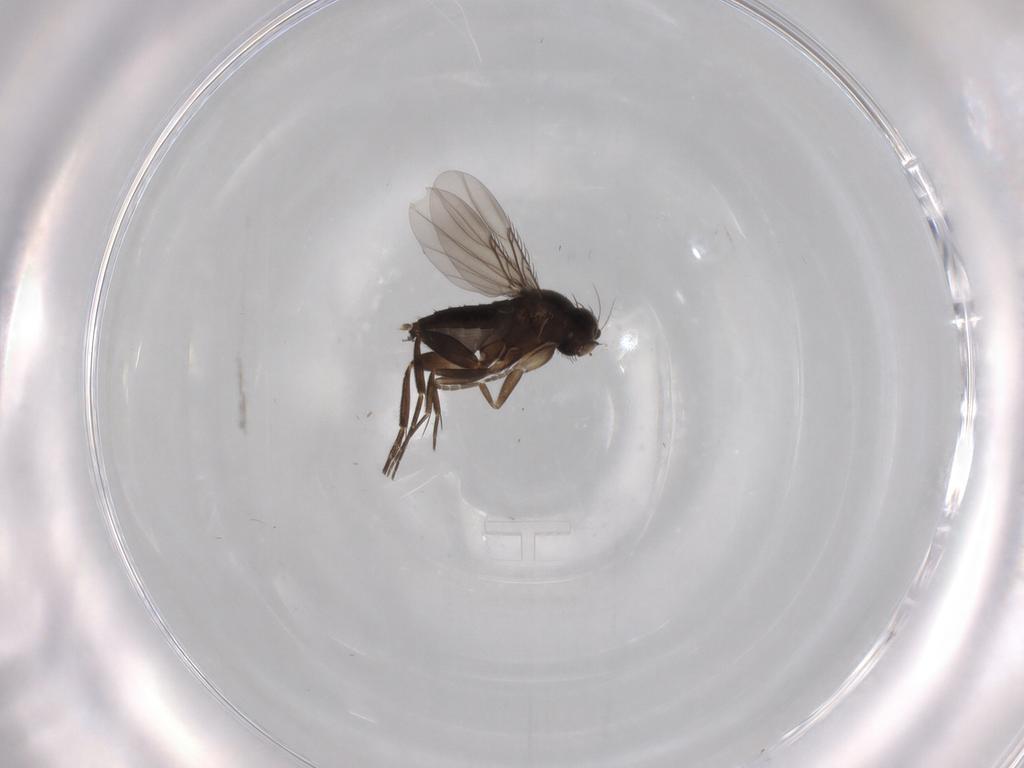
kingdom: Animalia
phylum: Arthropoda
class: Insecta
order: Diptera
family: Phoridae
